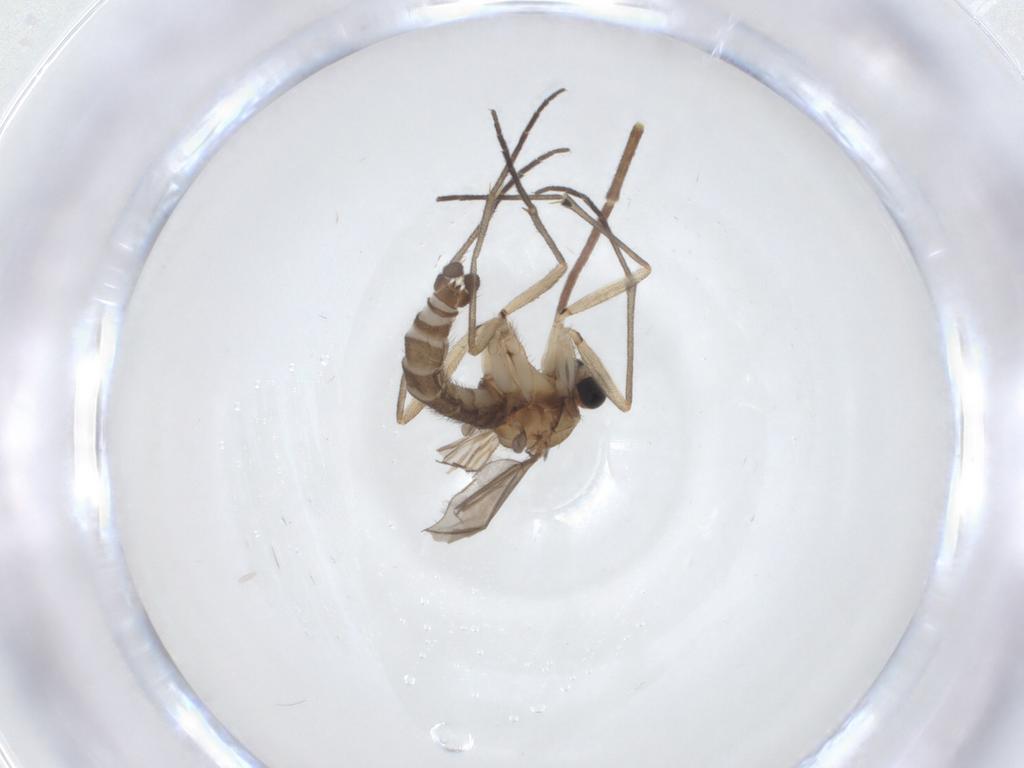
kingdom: Animalia
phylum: Arthropoda
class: Insecta
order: Diptera
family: Sciaridae
